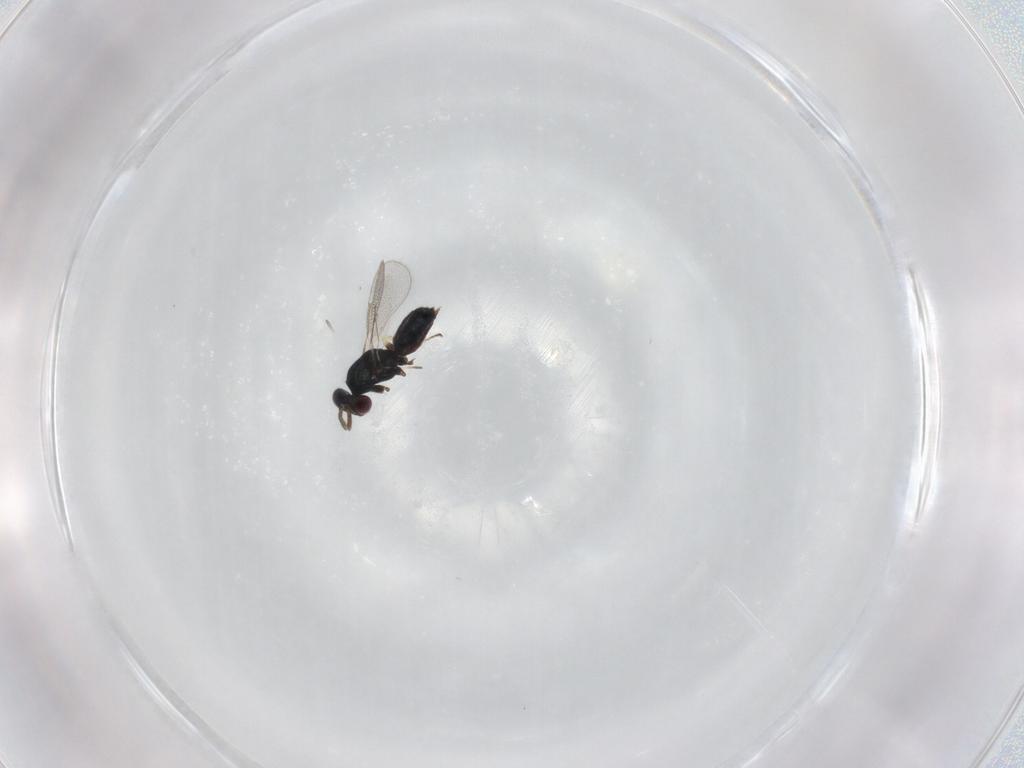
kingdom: Animalia
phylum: Arthropoda
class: Insecta
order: Hymenoptera
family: Eulophidae
